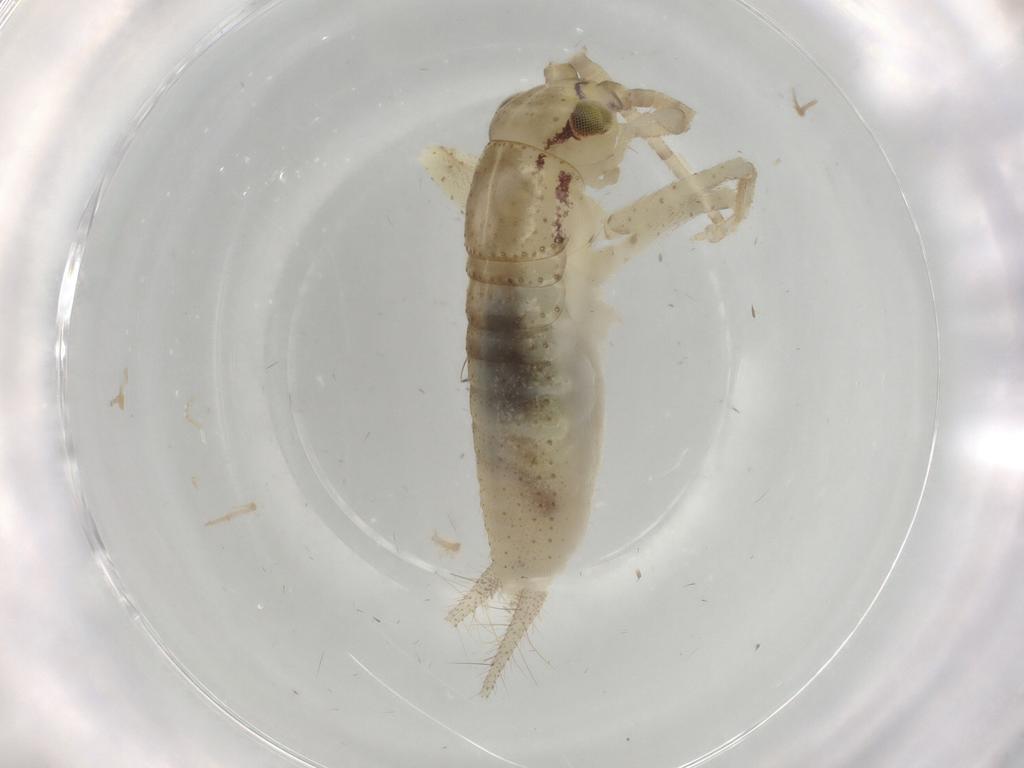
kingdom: Animalia
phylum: Arthropoda
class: Insecta
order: Orthoptera
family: Gryllidae
